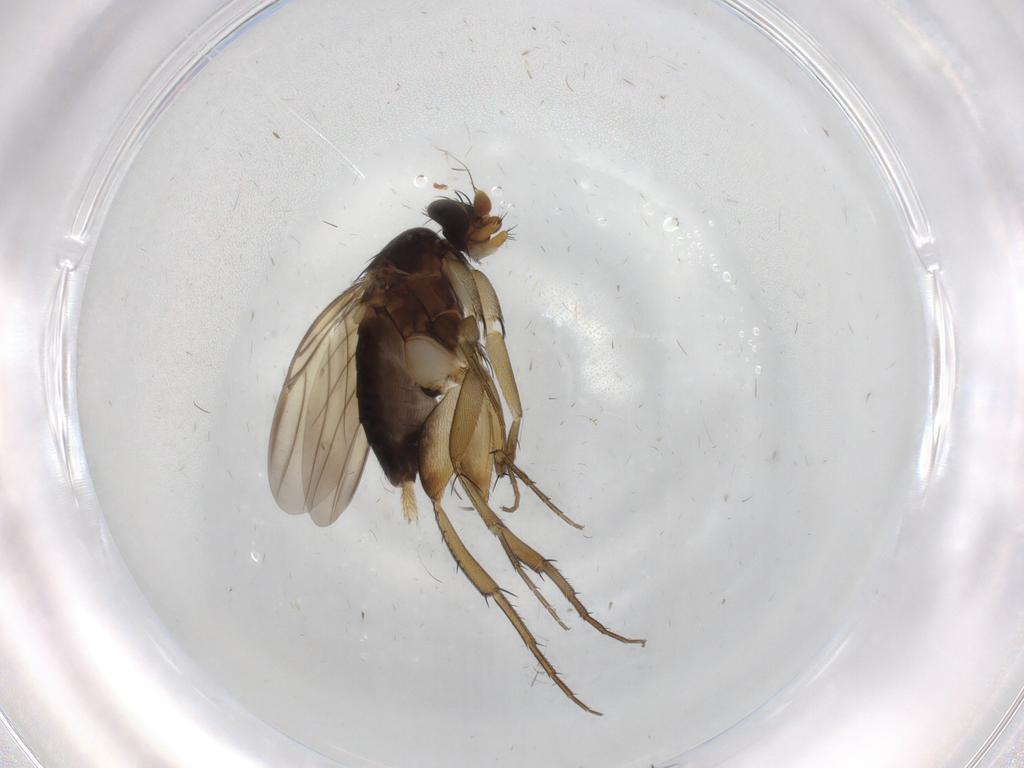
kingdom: Animalia
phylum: Arthropoda
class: Insecta
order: Diptera
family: Phoridae
